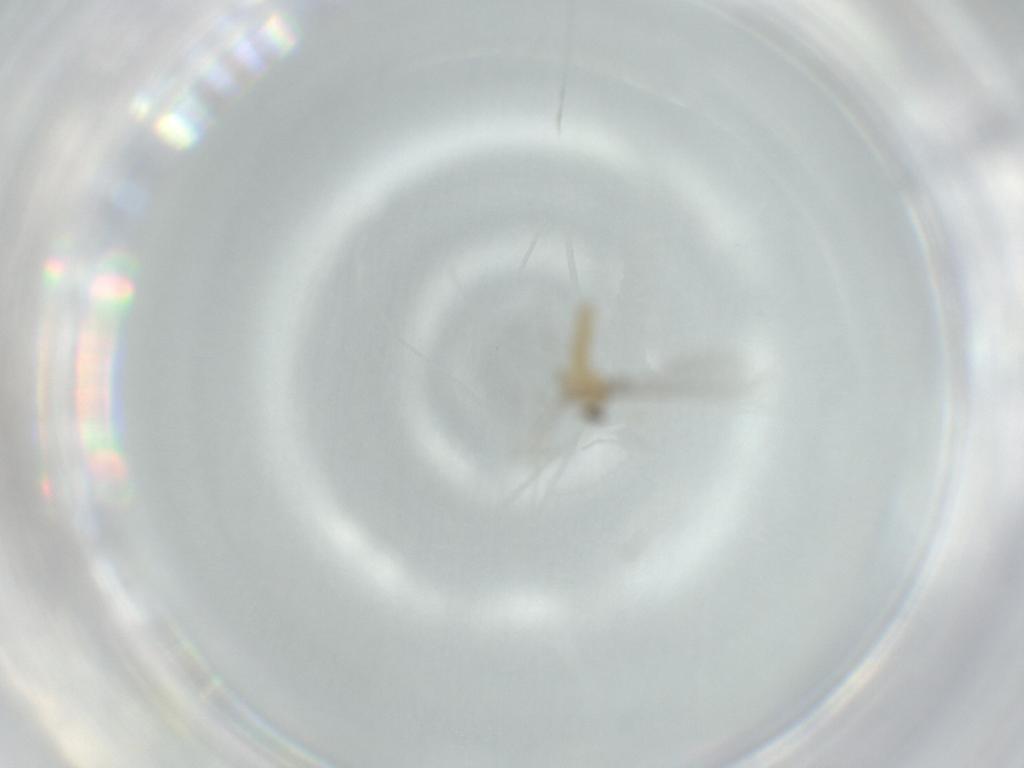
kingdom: Animalia
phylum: Arthropoda
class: Insecta
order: Diptera
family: Cecidomyiidae
